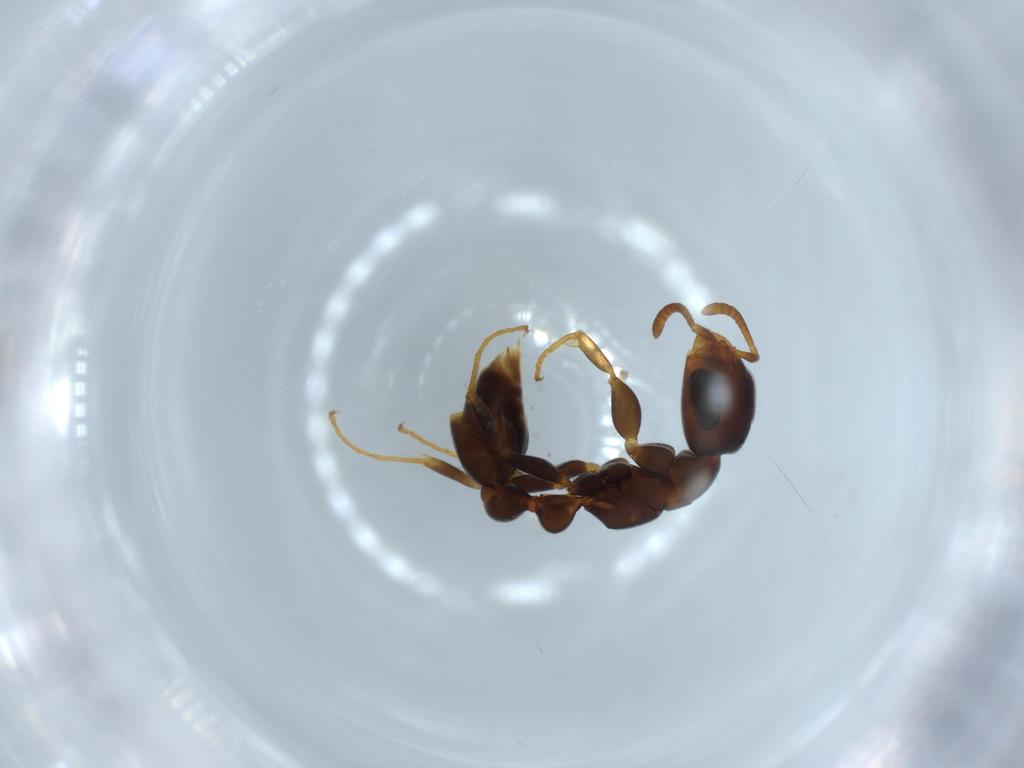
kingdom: Animalia
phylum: Arthropoda
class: Insecta
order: Hymenoptera
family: Formicidae
